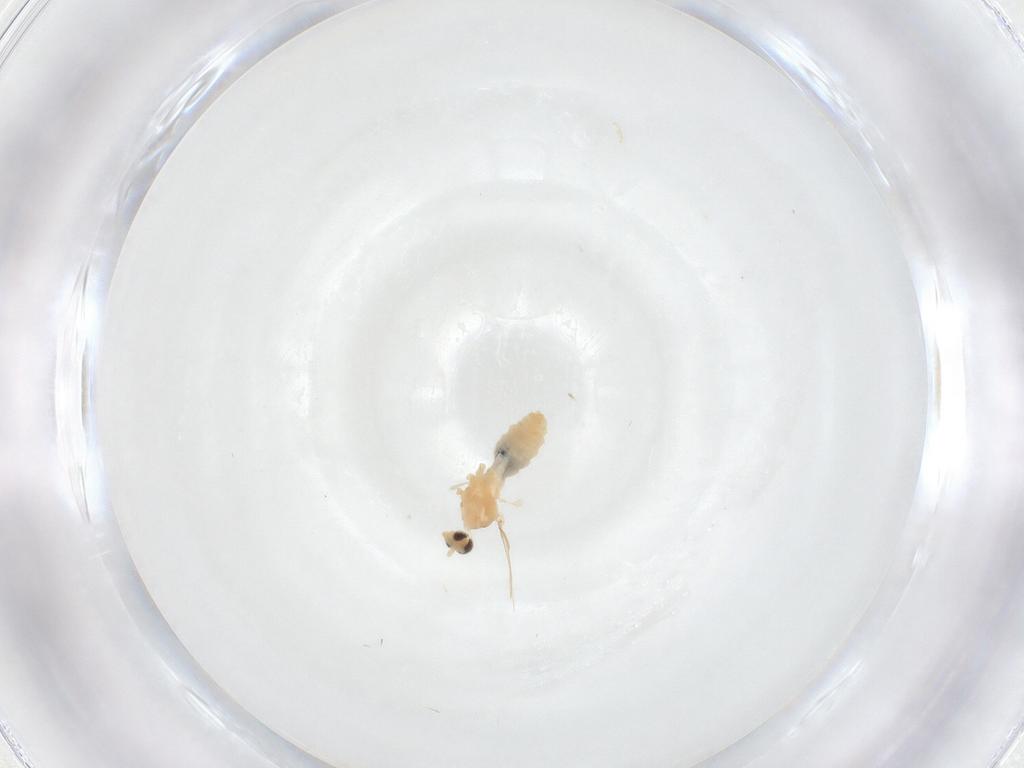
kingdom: Animalia
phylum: Arthropoda
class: Insecta
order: Diptera
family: Cecidomyiidae
